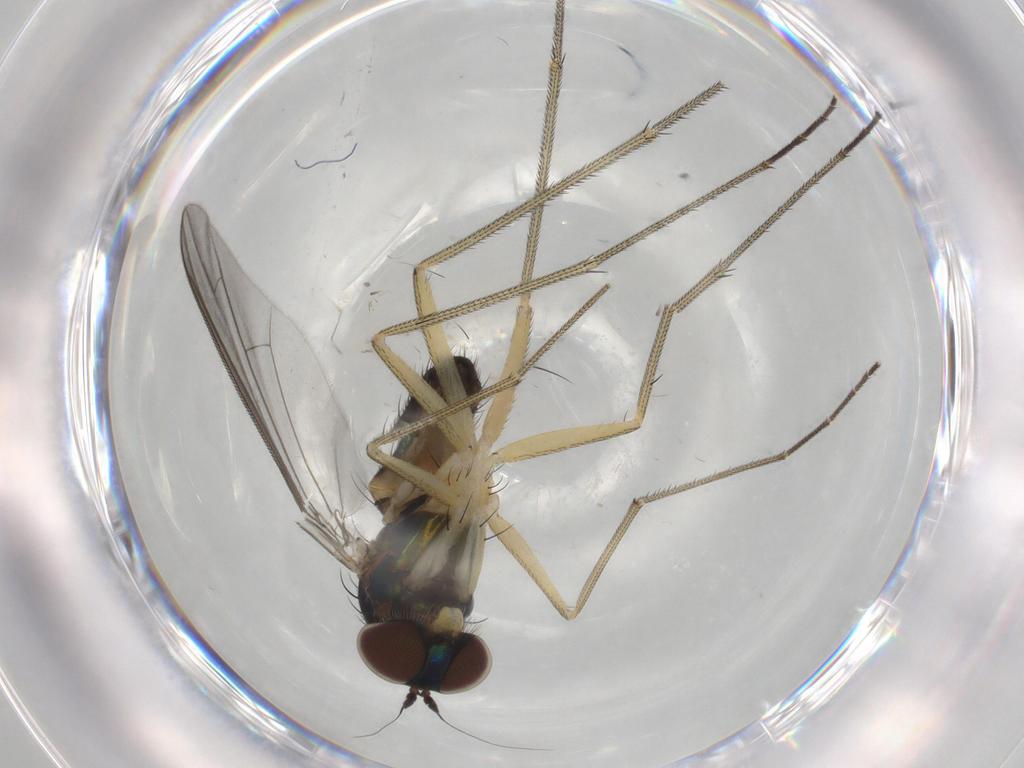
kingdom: Animalia
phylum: Arthropoda
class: Insecta
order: Diptera
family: Dolichopodidae
